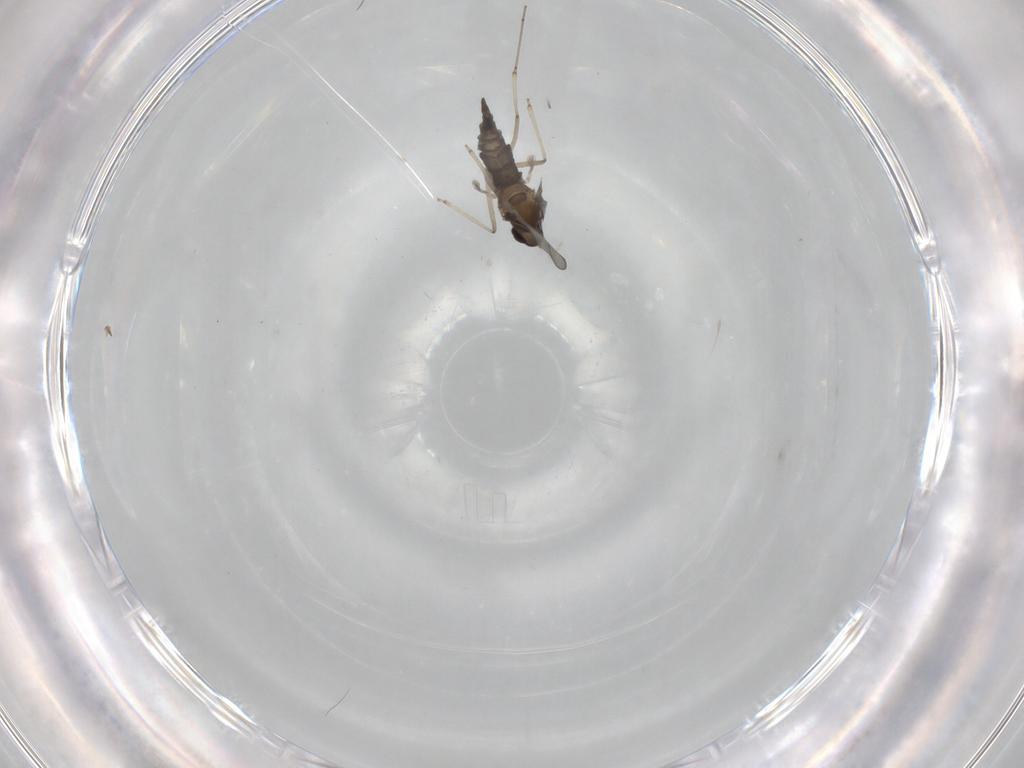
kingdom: Animalia
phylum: Arthropoda
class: Insecta
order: Diptera
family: Cecidomyiidae
